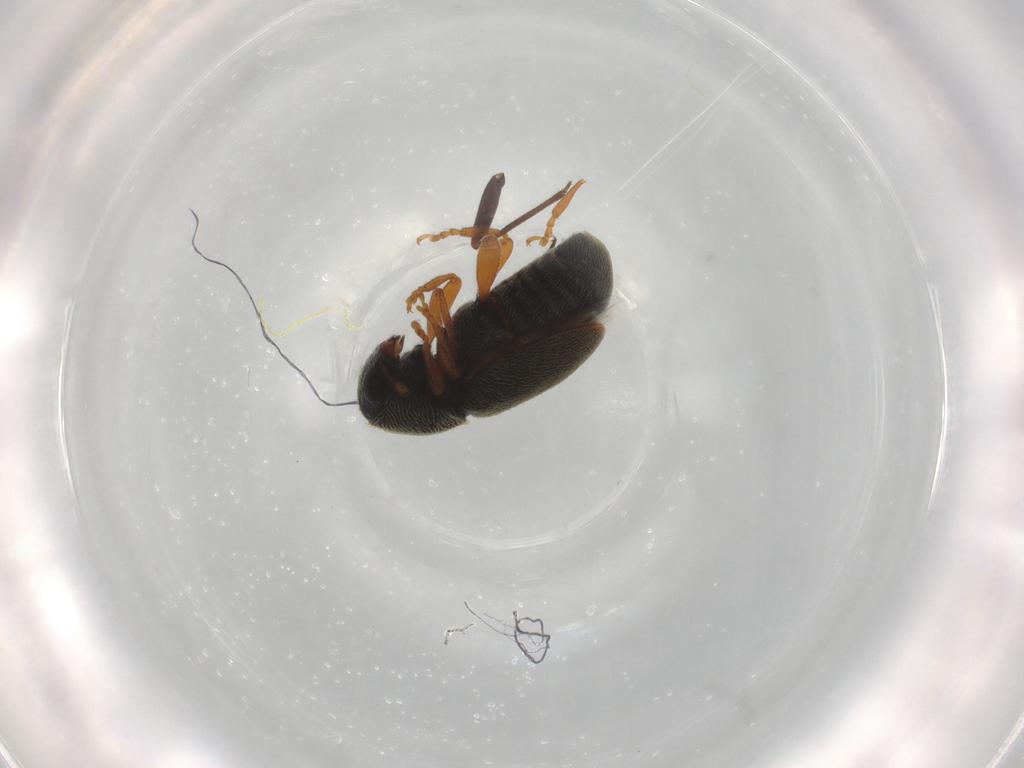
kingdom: Animalia
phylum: Arthropoda
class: Insecta
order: Coleoptera
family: Anthribidae
